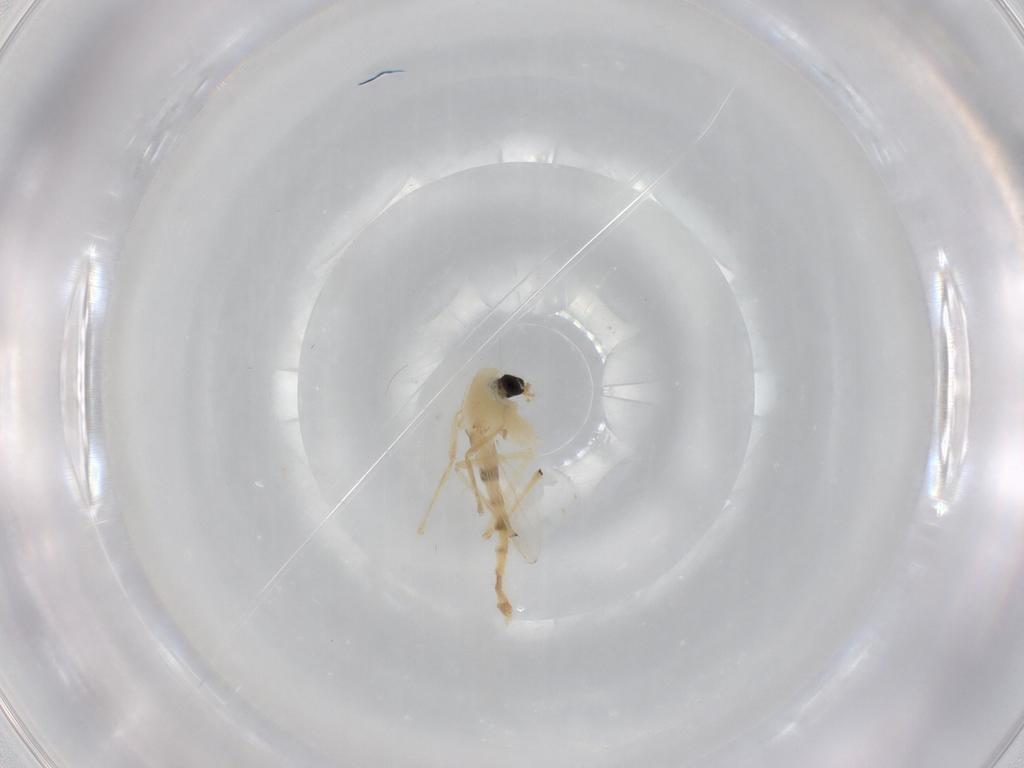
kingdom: Animalia
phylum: Arthropoda
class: Insecta
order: Diptera
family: Chironomidae
